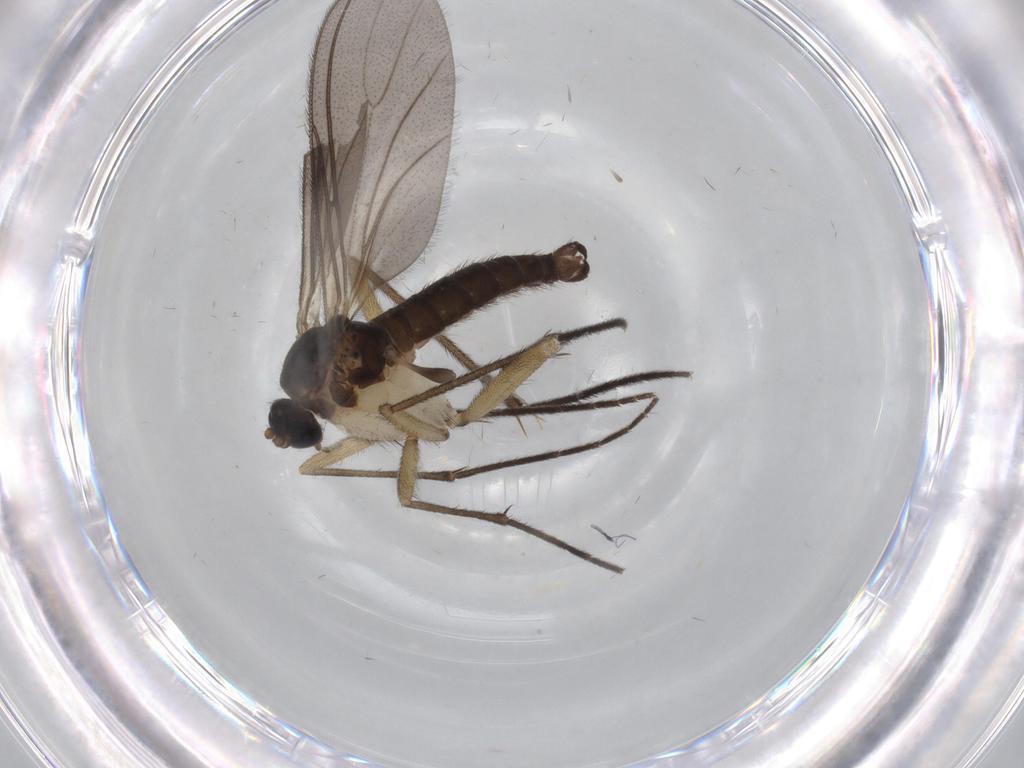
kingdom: Animalia
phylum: Arthropoda
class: Insecta
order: Diptera
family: Sciaridae
